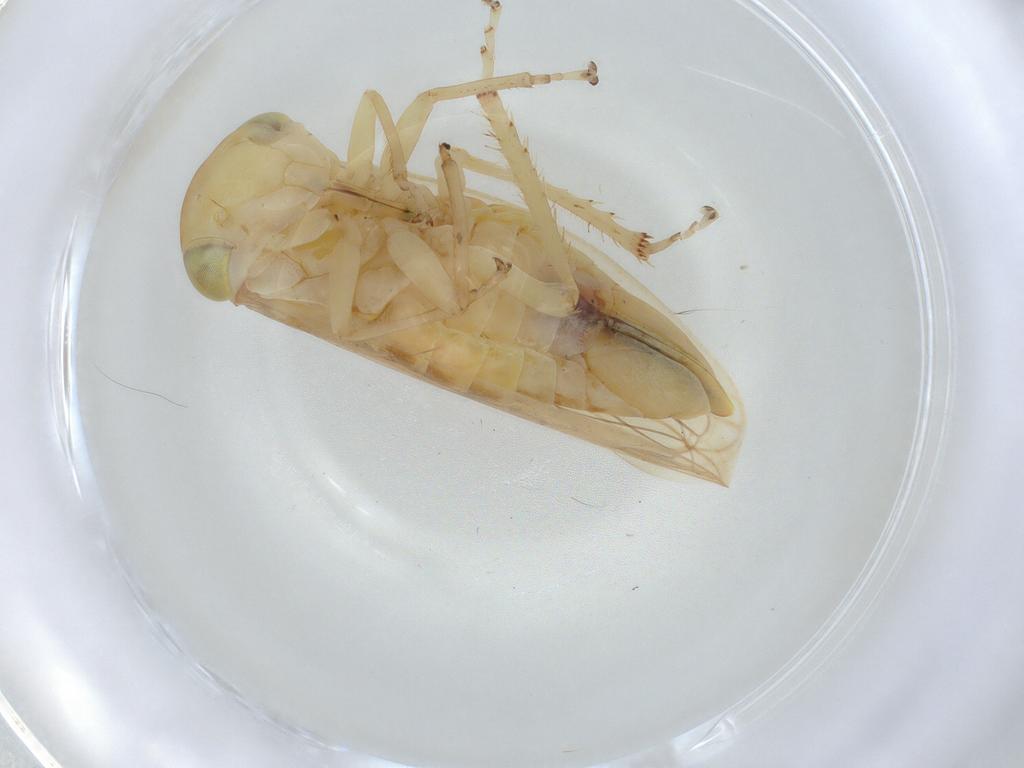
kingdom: Animalia
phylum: Arthropoda
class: Insecta
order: Hemiptera
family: Cicadellidae
